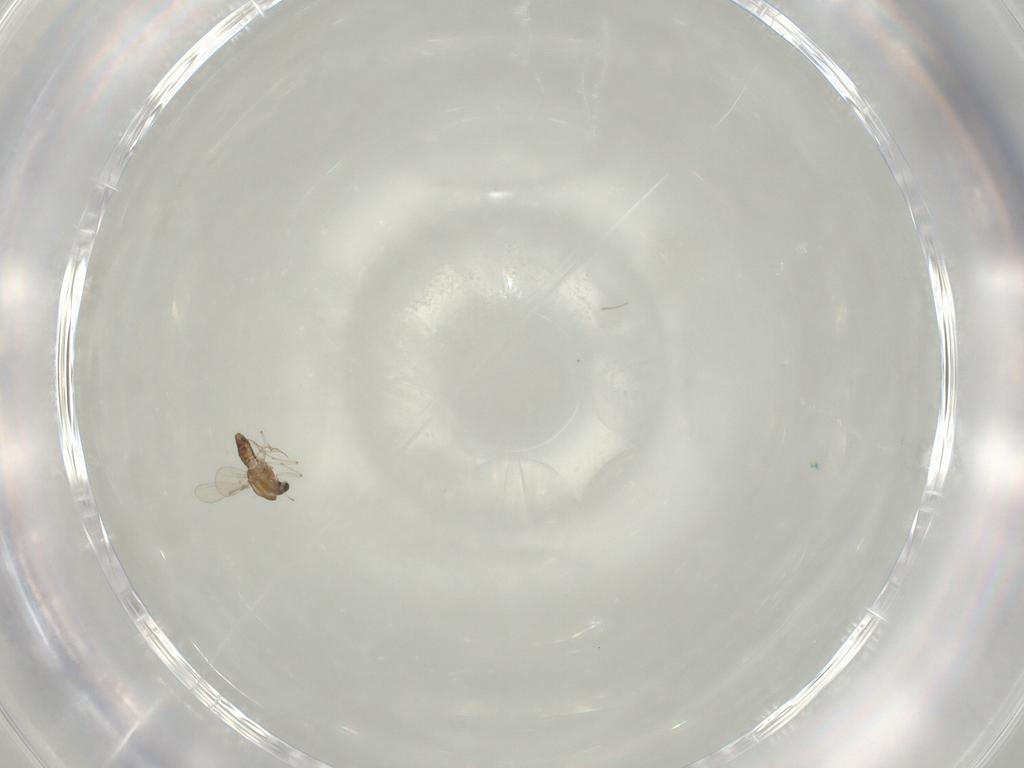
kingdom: Animalia
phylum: Arthropoda
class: Insecta
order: Diptera
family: Chironomidae
